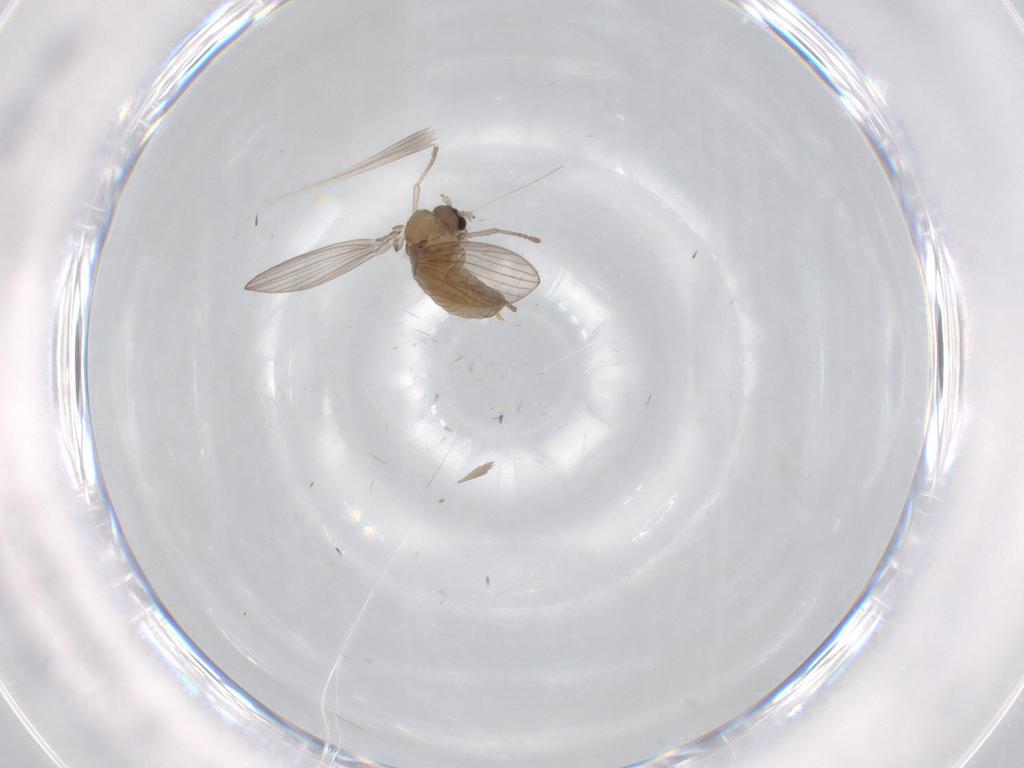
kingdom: Animalia
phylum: Arthropoda
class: Insecta
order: Diptera
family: Psychodidae
